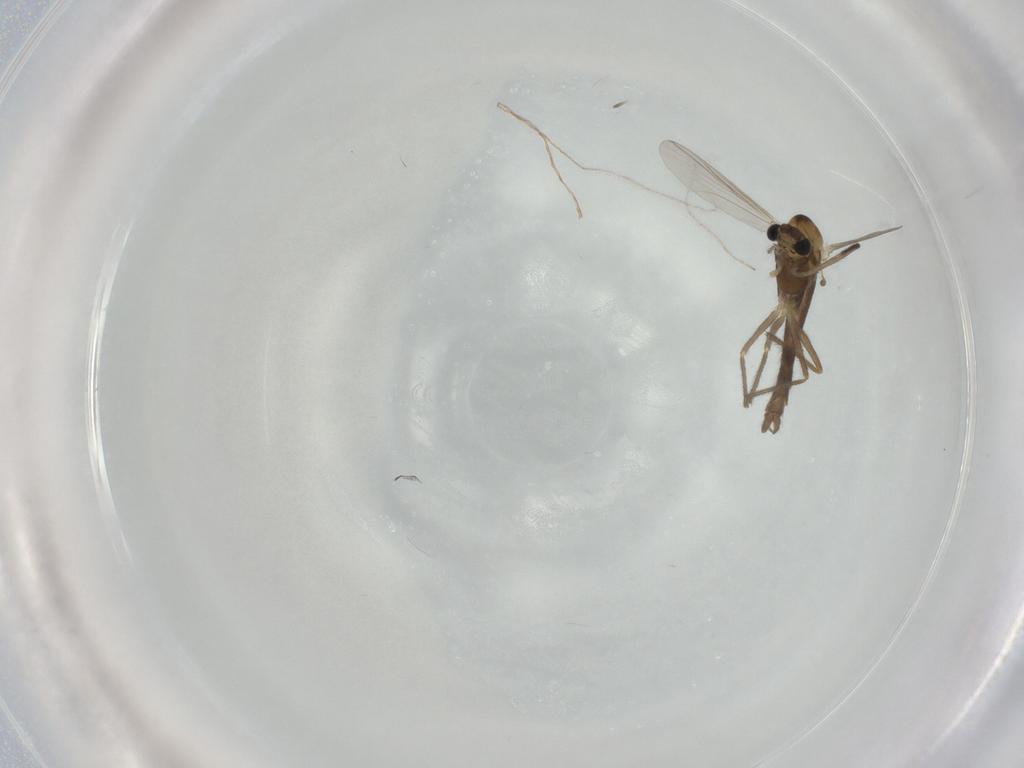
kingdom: Animalia
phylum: Arthropoda
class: Insecta
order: Diptera
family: Chironomidae
